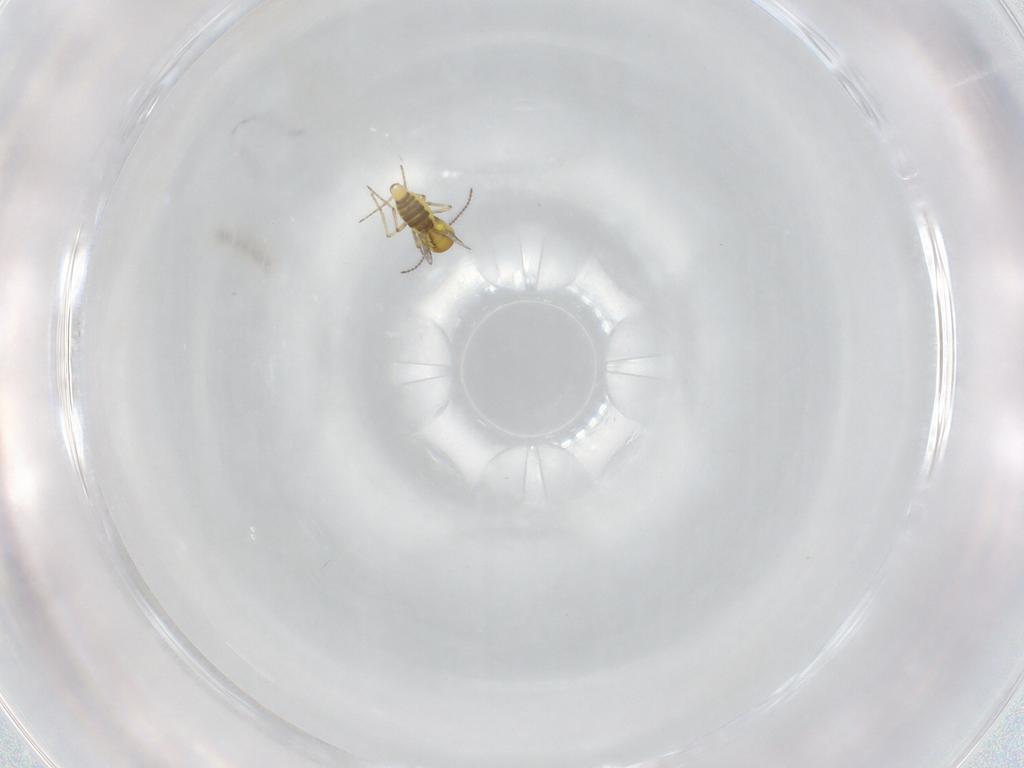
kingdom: Animalia
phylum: Arthropoda
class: Insecta
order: Diptera
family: Ceratopogonidae
